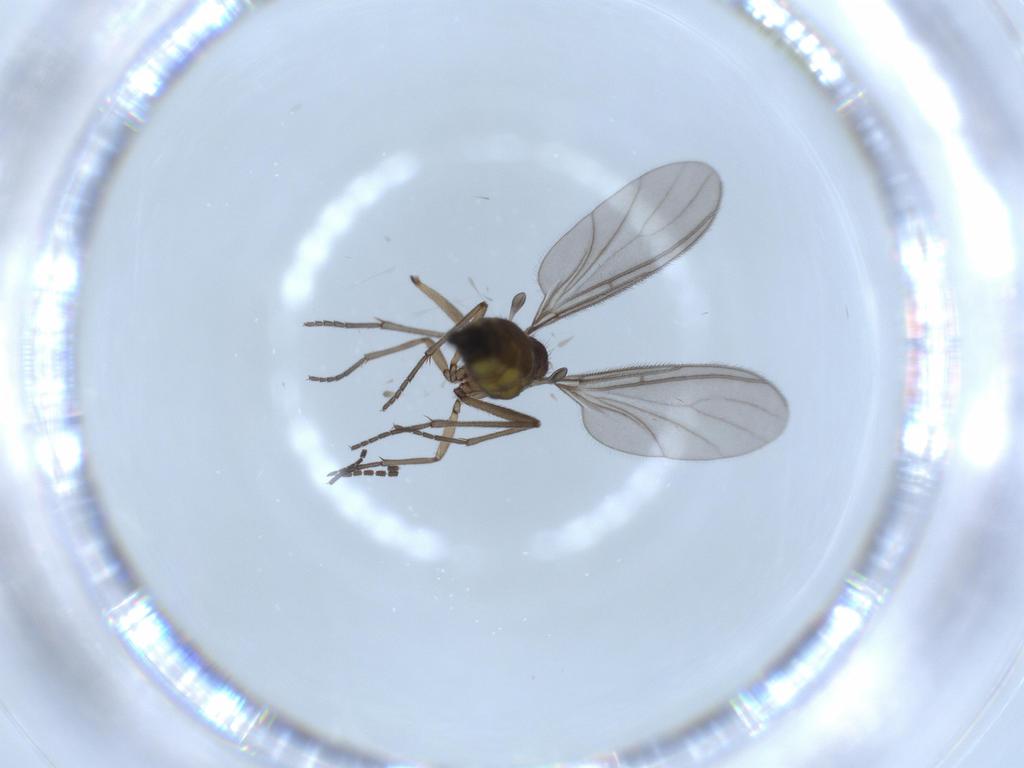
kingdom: Animalia
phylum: Arthropoda
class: Insecta
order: Diptera
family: Sciaridae
